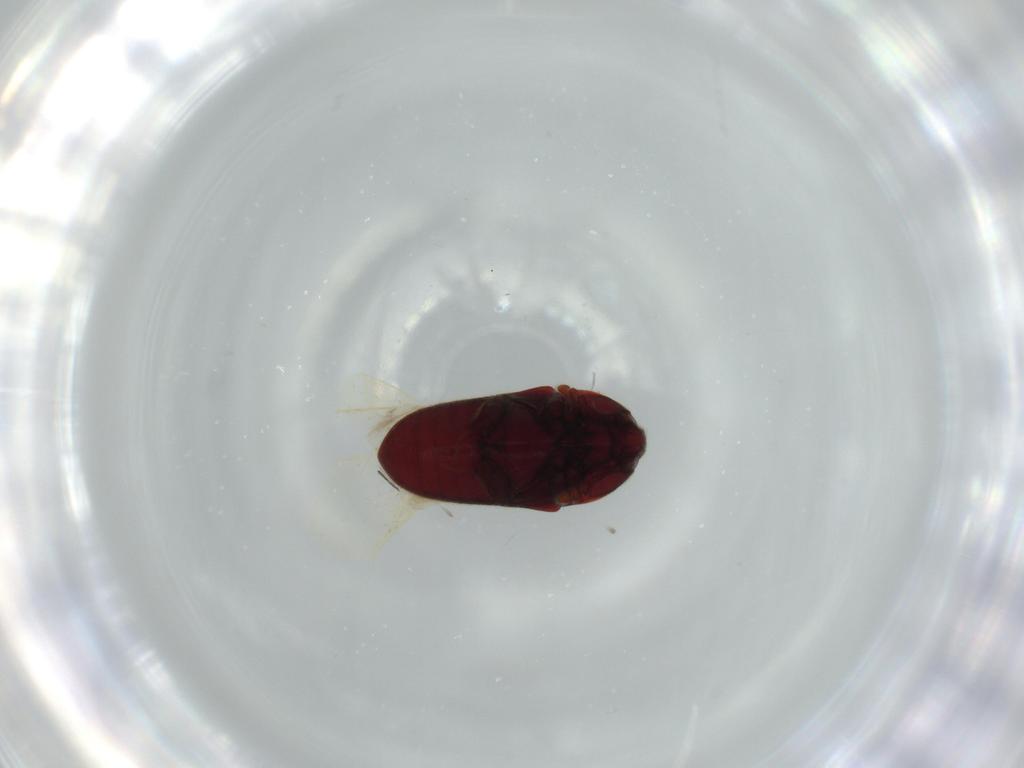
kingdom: Animalia
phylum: Arthropoda
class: Insecta
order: Coleoptera
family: Throscidae
